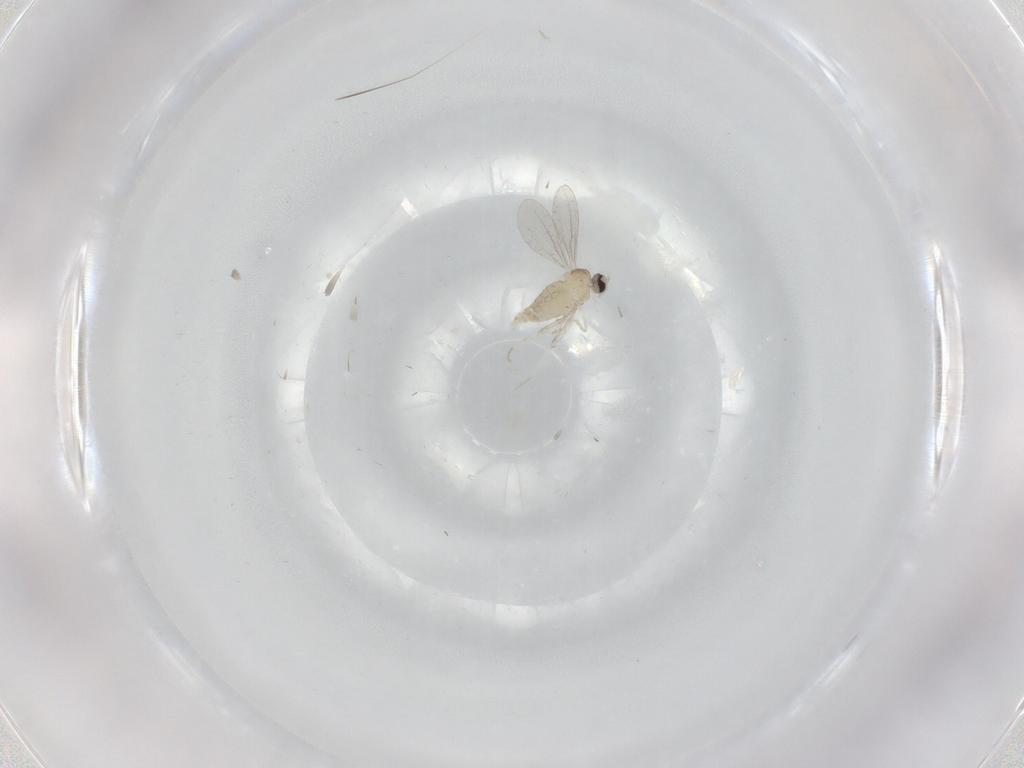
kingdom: Animalia
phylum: Arthropoda
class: Insecta
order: Diptera
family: Cecidomyiidae
